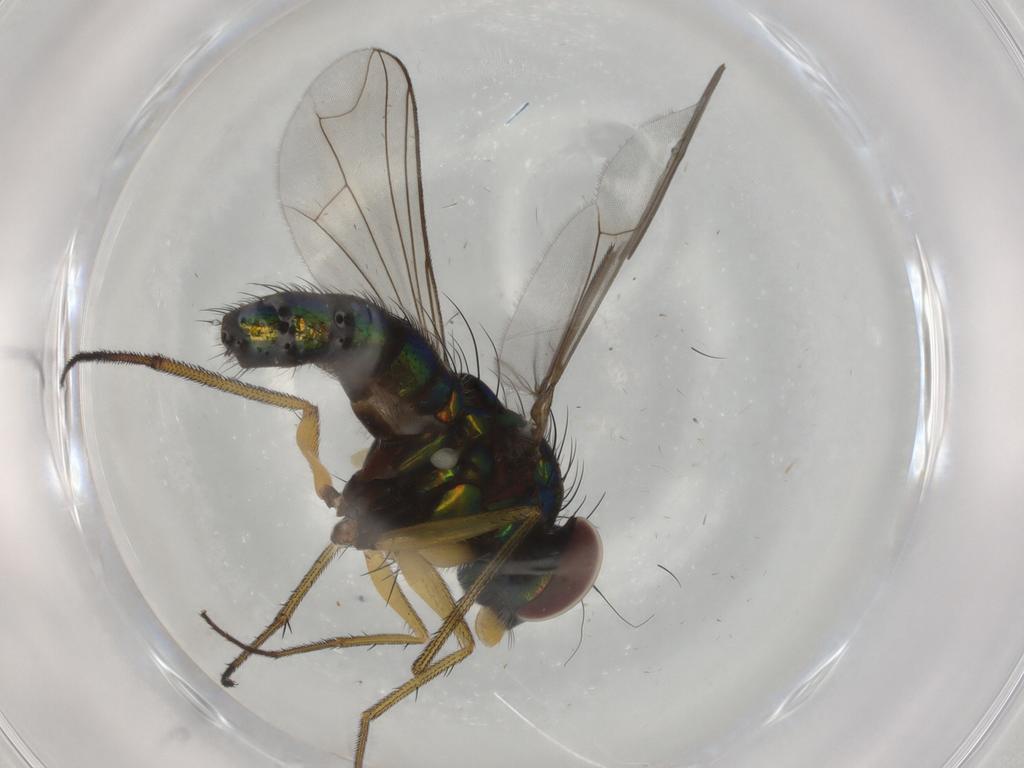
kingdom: Animalia
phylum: Arthropoda
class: Insecta
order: Diptera
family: Dolichopodidae
